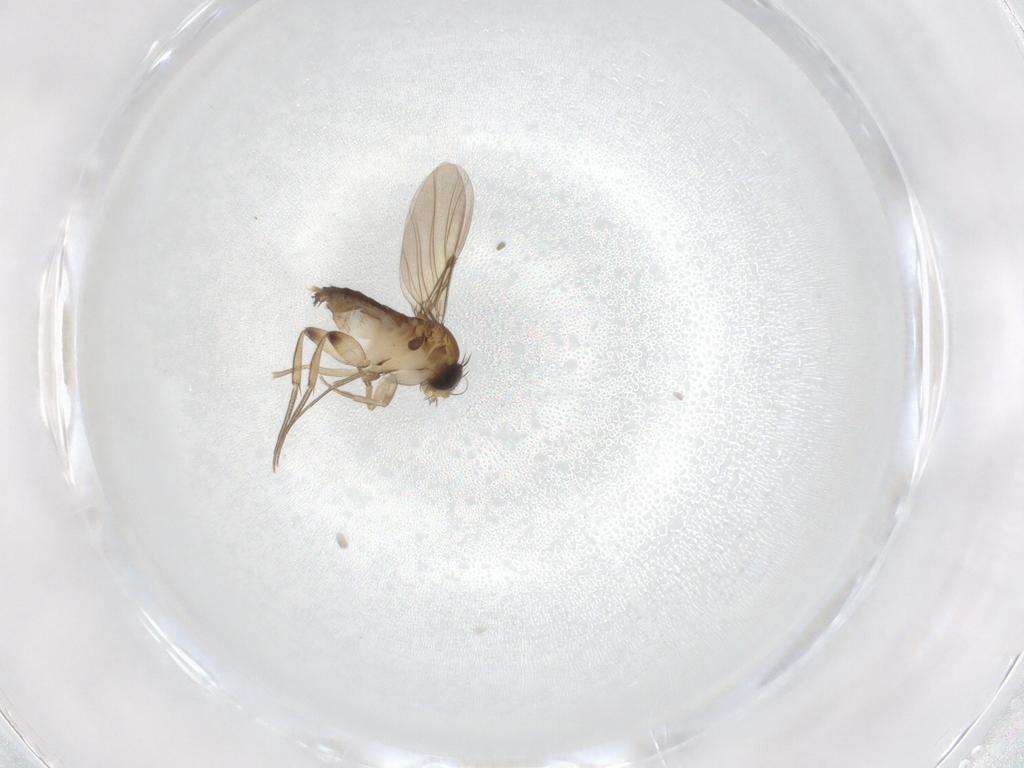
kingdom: Animalia
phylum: Arthropoda
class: Insecta
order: Diptera
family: Phoridae
